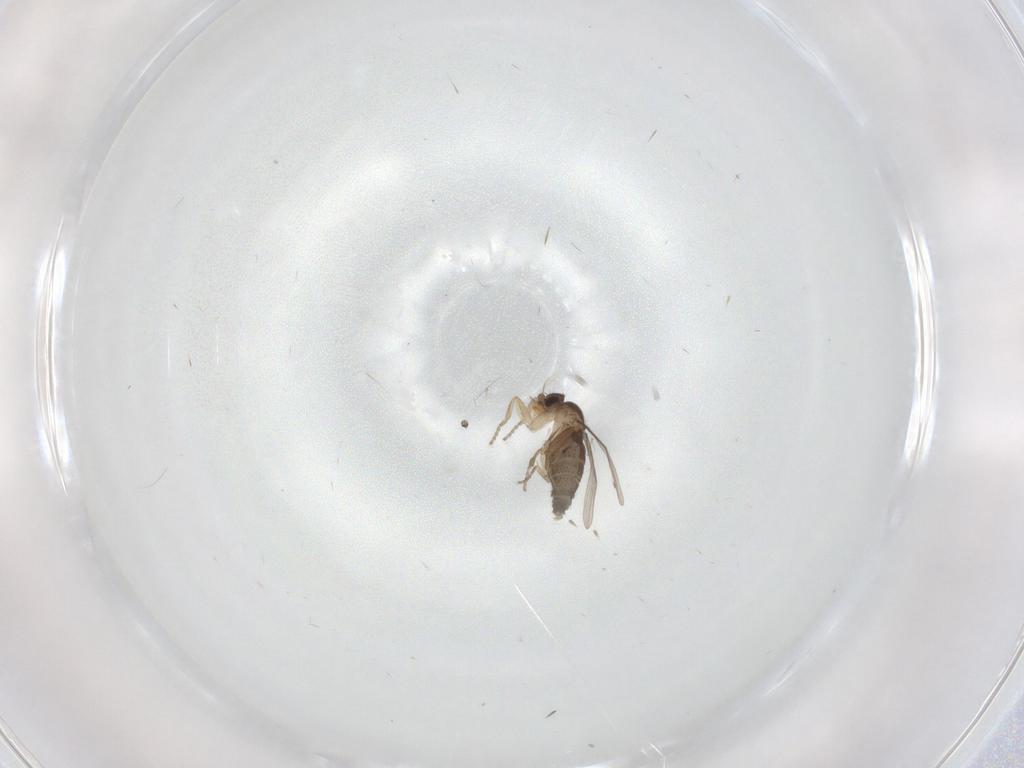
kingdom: Animalia
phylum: Arthropoda
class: Insecta
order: Diptera
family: Cecidomyiidae
